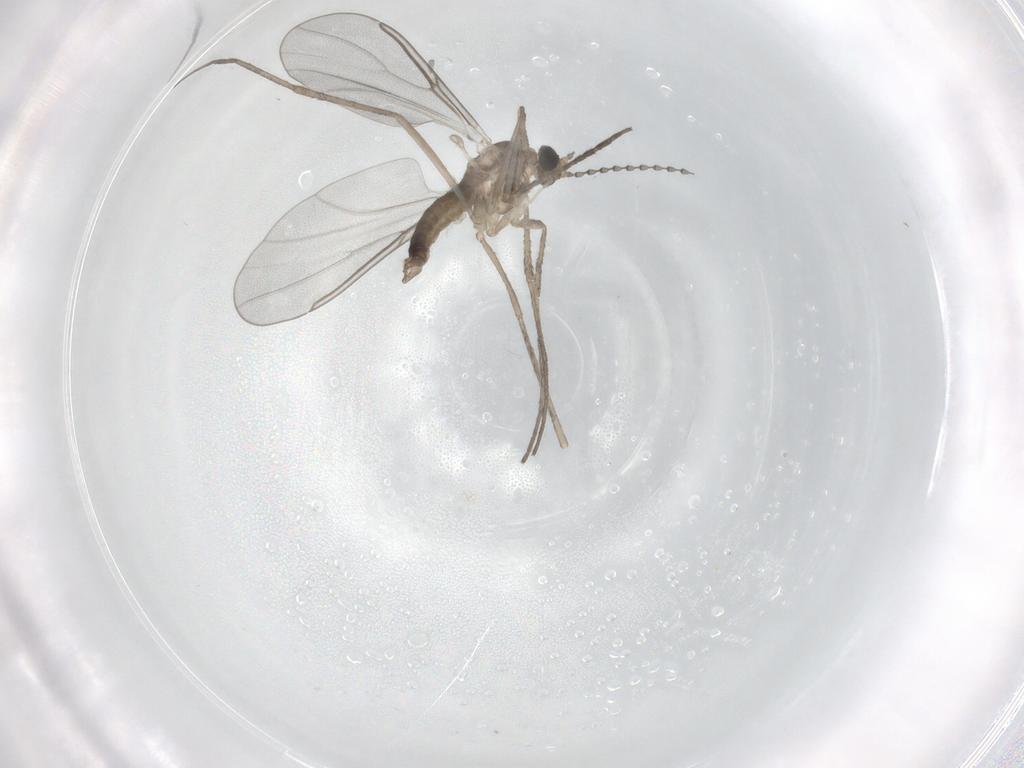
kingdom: Animalia
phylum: Arthropoda
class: Insecta
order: Diptera
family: Cecidomyiidae
